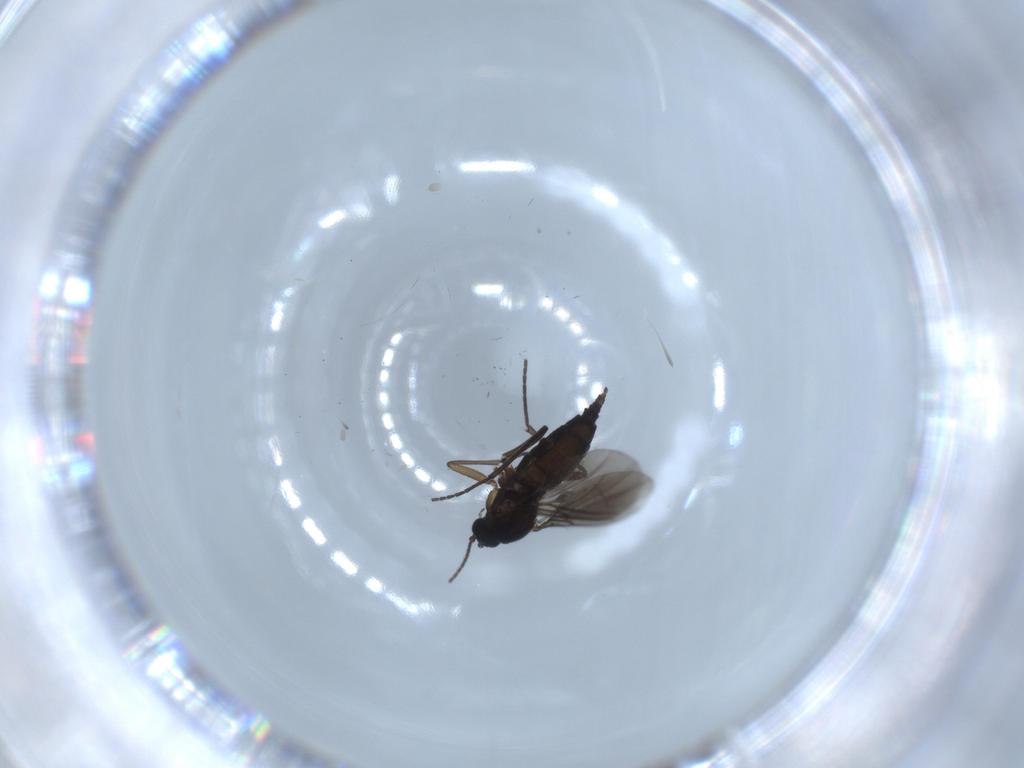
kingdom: Animalia
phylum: Arthropoda
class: Insecta
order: Diptera
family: Sciaridae
